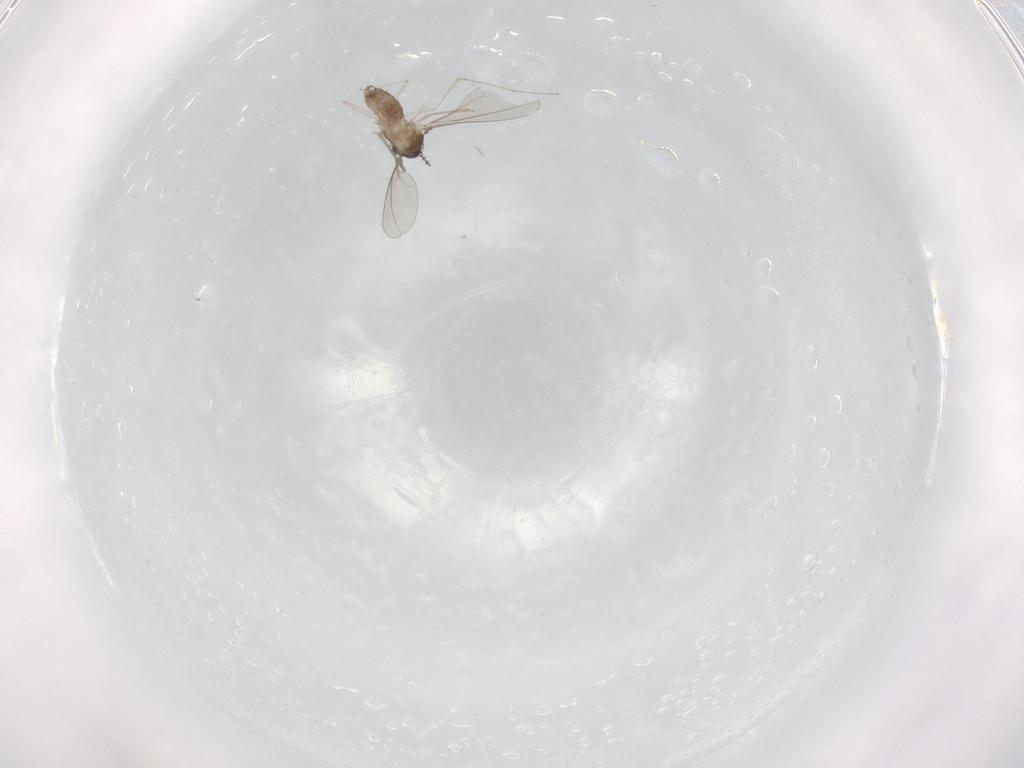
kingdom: Animalia
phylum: Arthropoda
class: Insecta
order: Diptera
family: Cecidomyiidae
